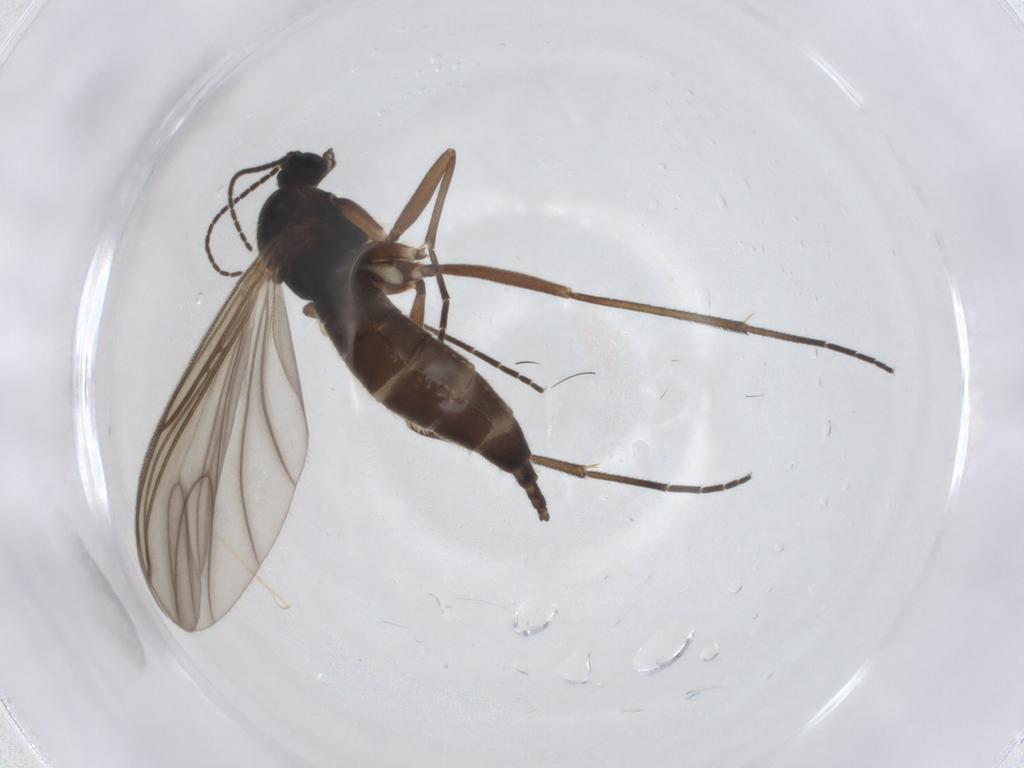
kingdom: Animalia
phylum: Arthropoda
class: Insecta
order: Diptera
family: Sciaridae
